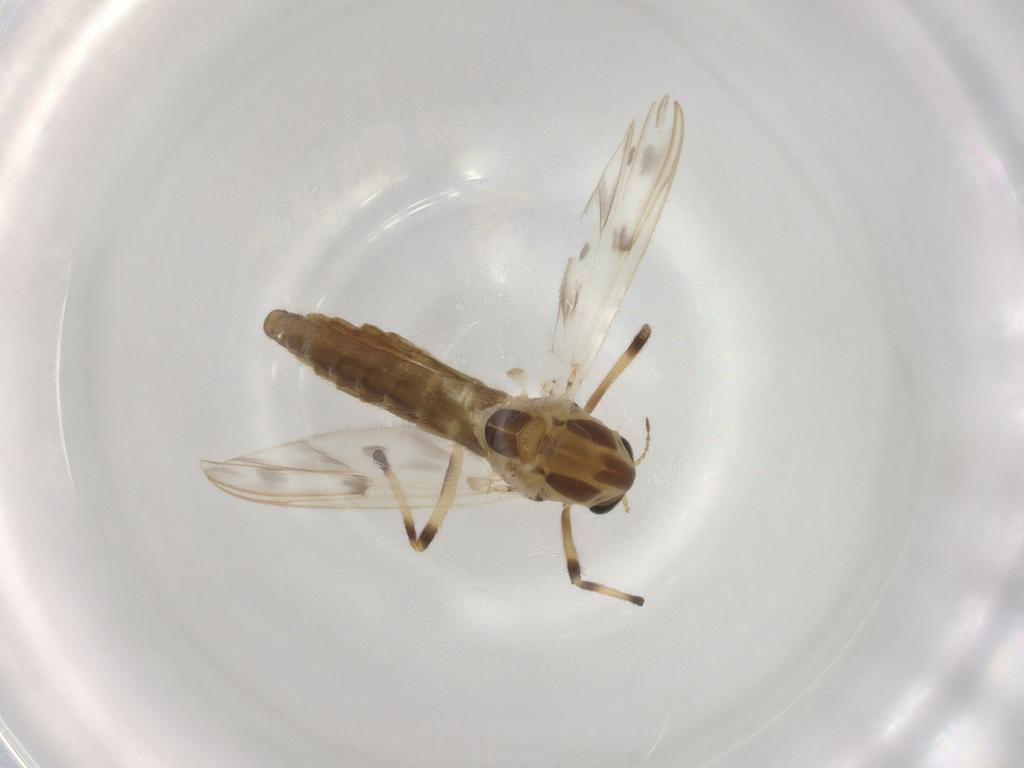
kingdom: Animalia
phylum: Arthropoda
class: Insecta
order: Diptera
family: Chironomidae
